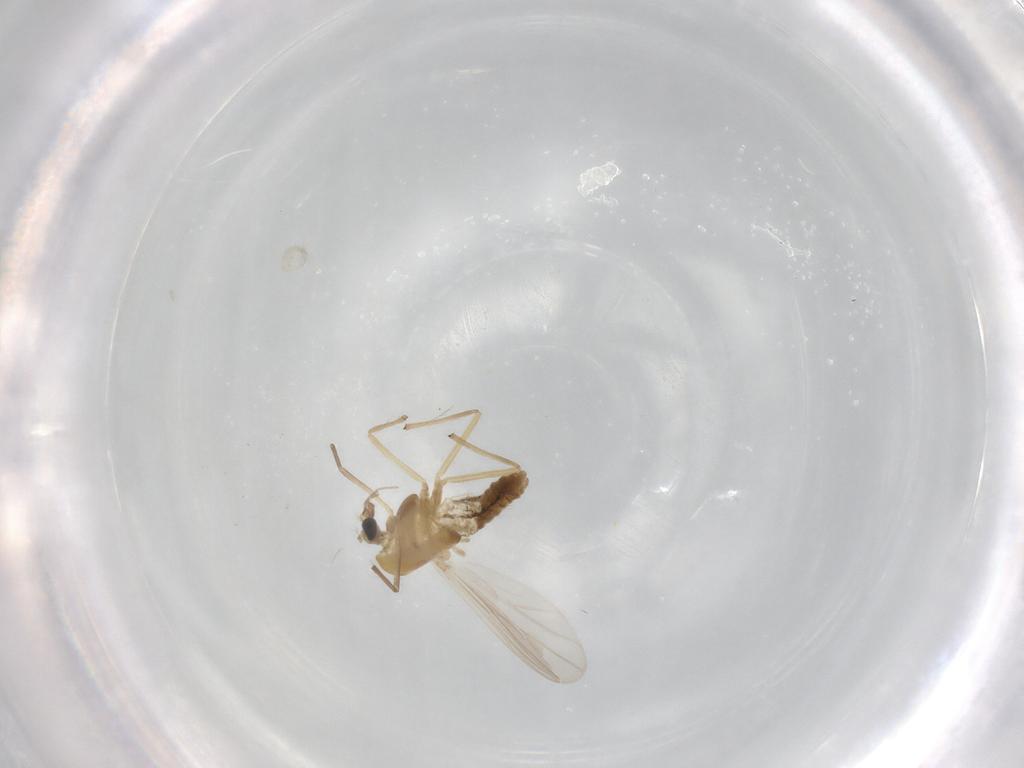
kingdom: Animalia
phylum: Arthropoda
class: Insecta
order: Diptera
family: Chironomidae
